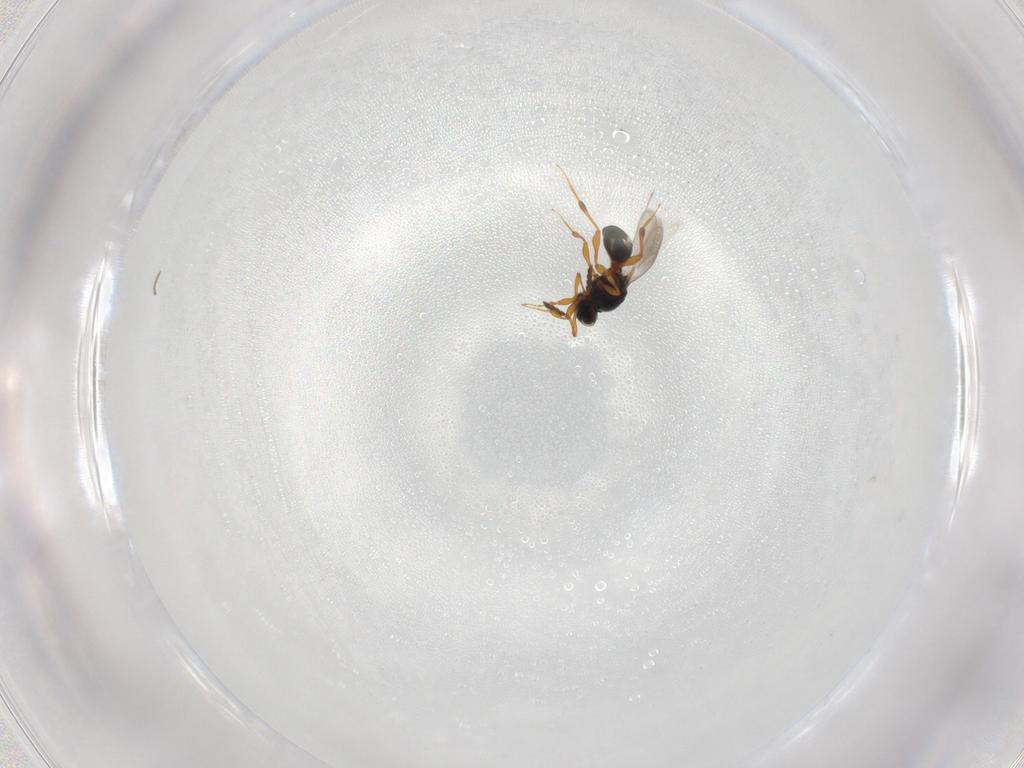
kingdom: Animalia
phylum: Arthropoda
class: Insecta
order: Hymenoptera
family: Platygastridae
